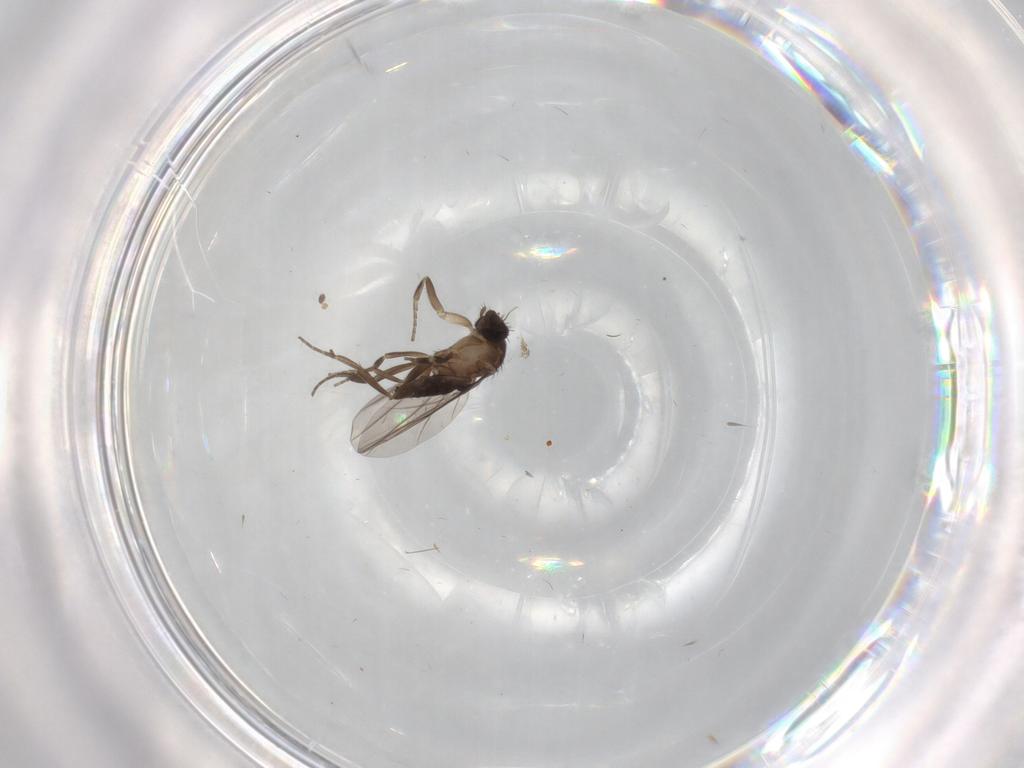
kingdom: Animalia
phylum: Arthropoda
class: Insecta
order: Diptera
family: Phoridae
